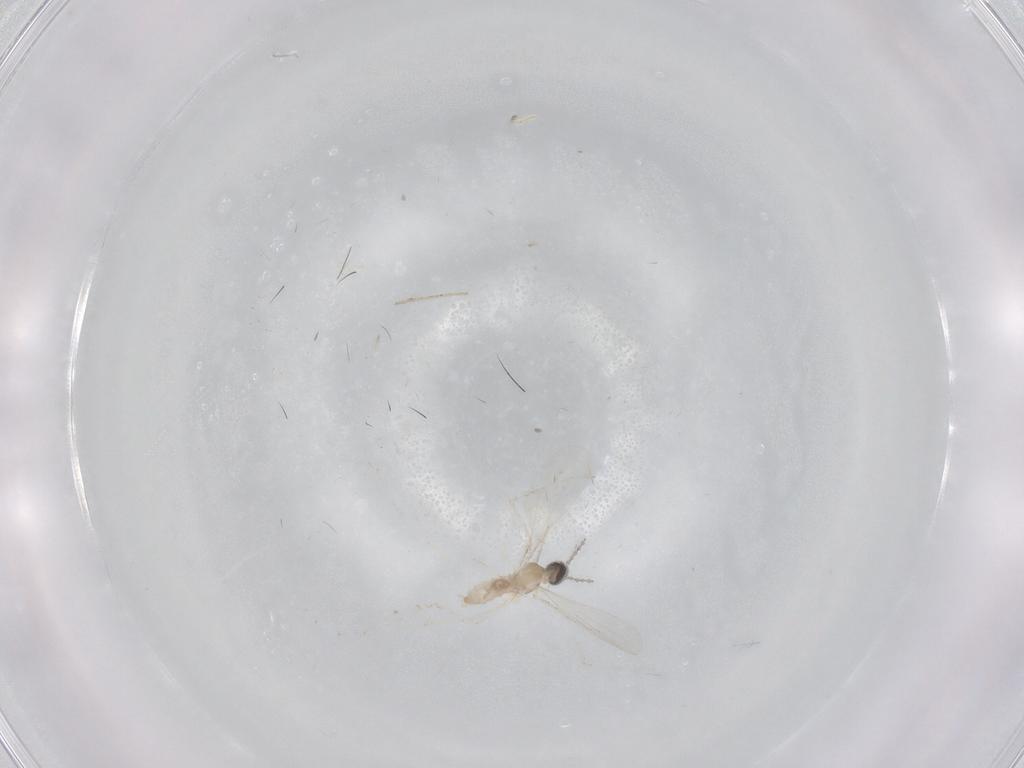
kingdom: Animalia
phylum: Arthropoda
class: Insecta
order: Diptera
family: Cecidomyiidae
